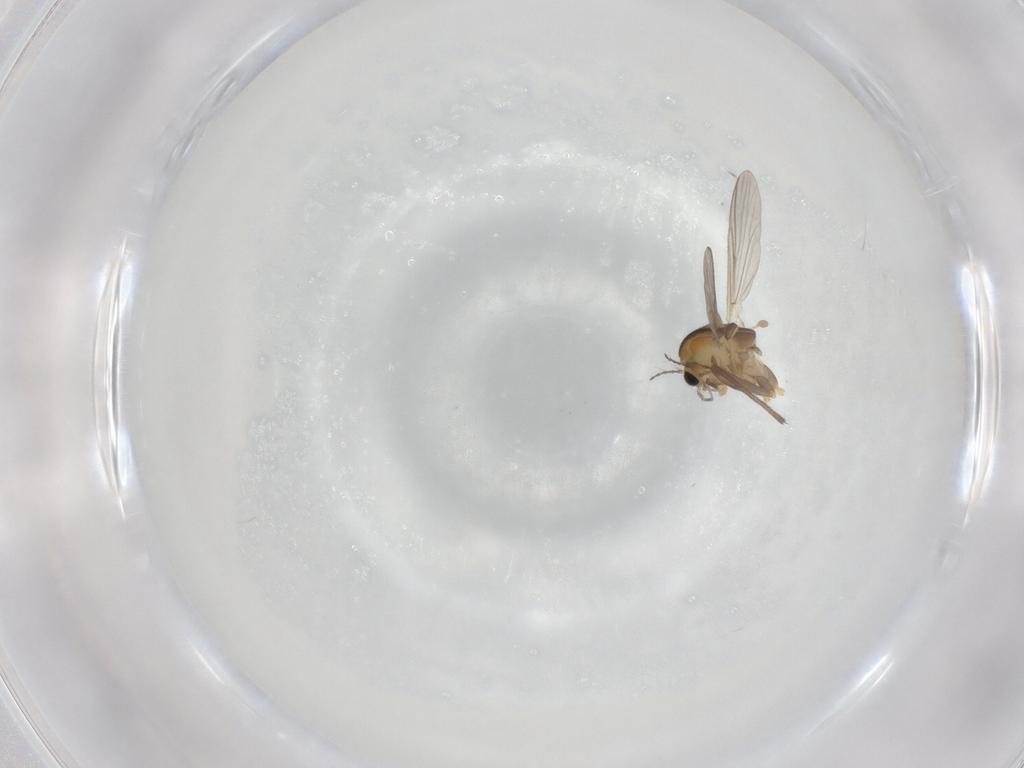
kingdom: Animalia
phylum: Arthropoda
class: Insecta
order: Diptera
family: Chironomidae
